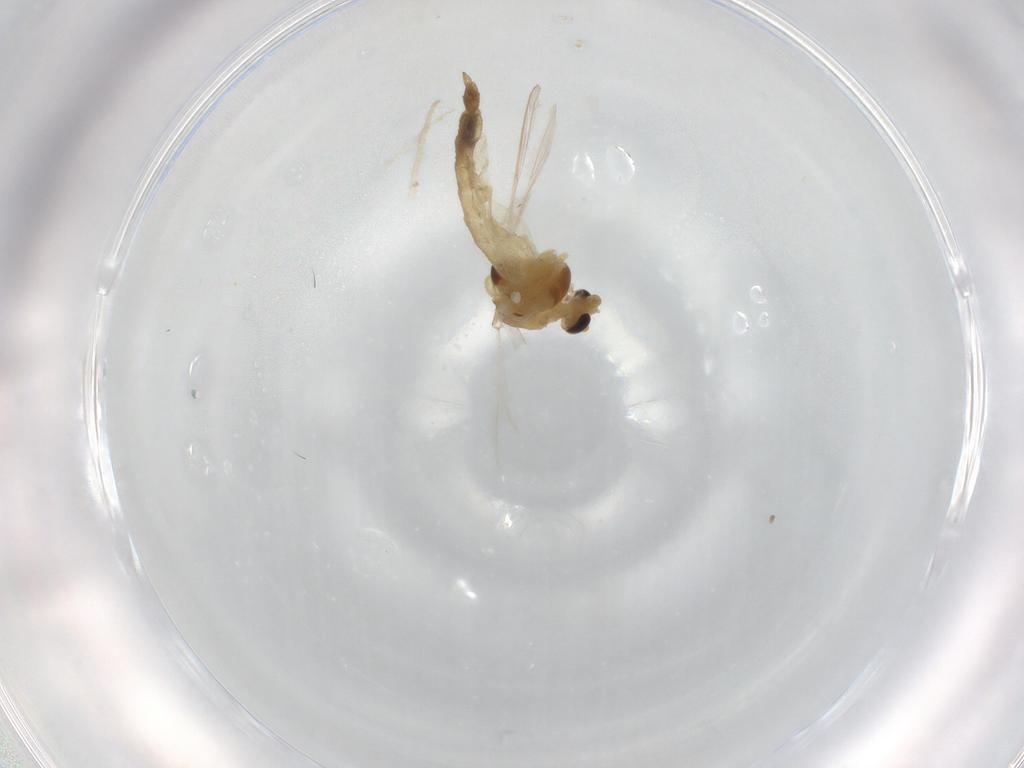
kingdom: Animalia
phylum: Arthropoda
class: Insecta
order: Diptera
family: Chironomidae
